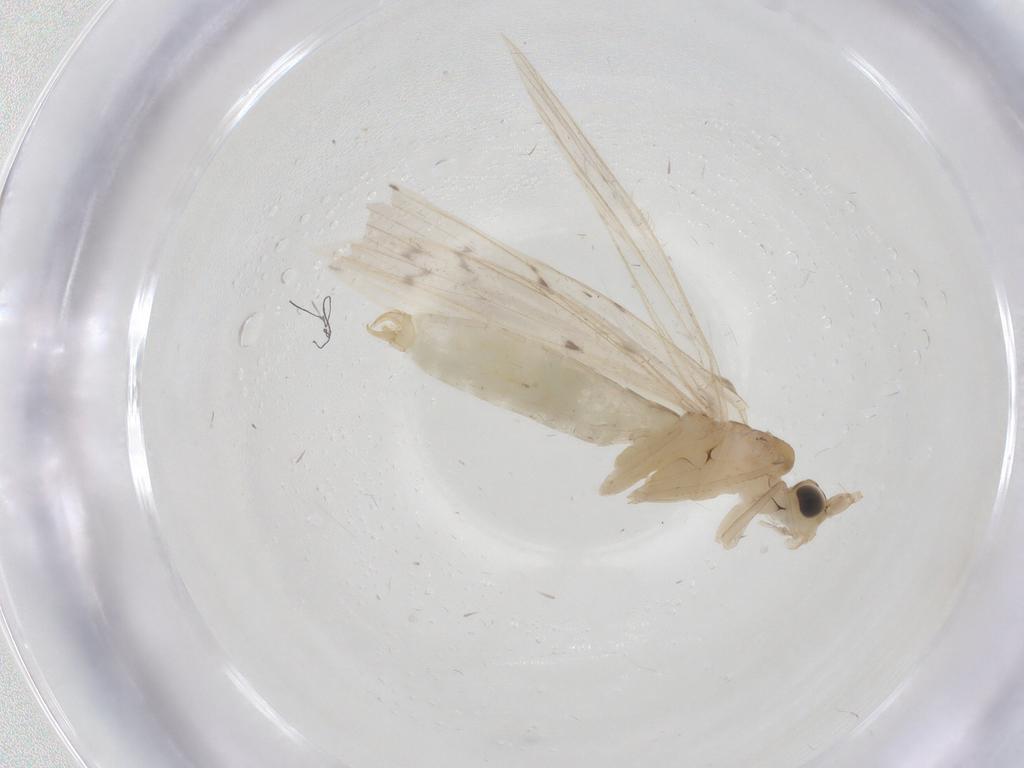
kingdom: Animalia
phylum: Arthropoda
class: Insecta
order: Trichoptera
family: Leptoceridae
